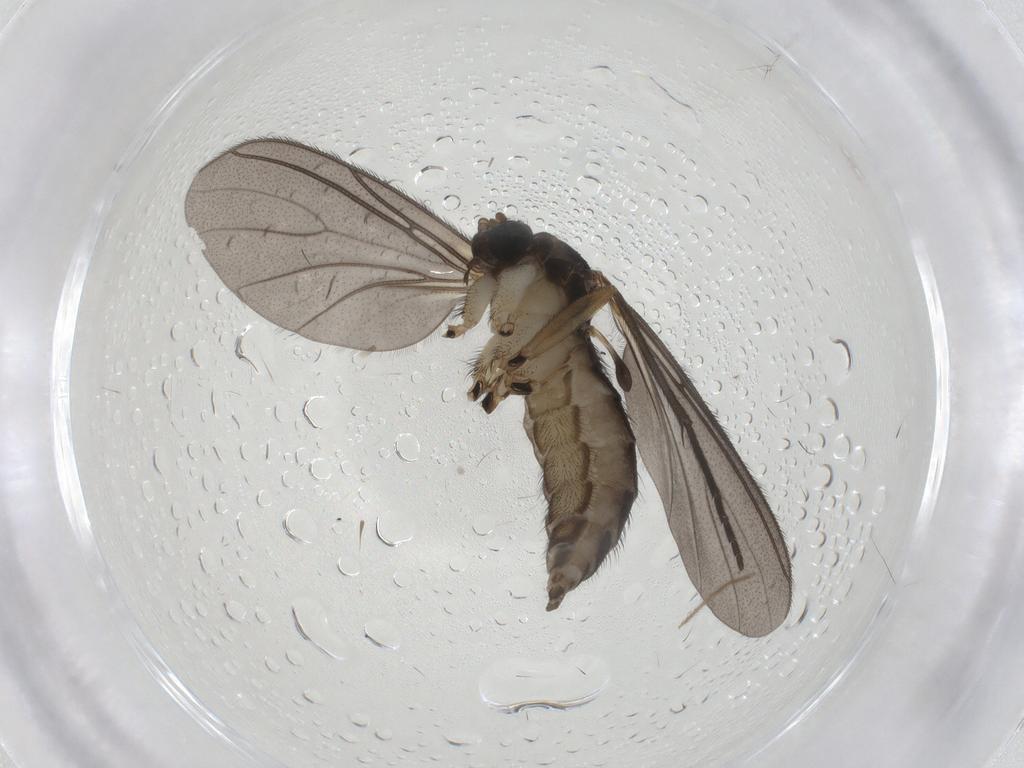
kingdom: Animalia
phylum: Arthropoda
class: Insecta
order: Diptera
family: Sciaridae
